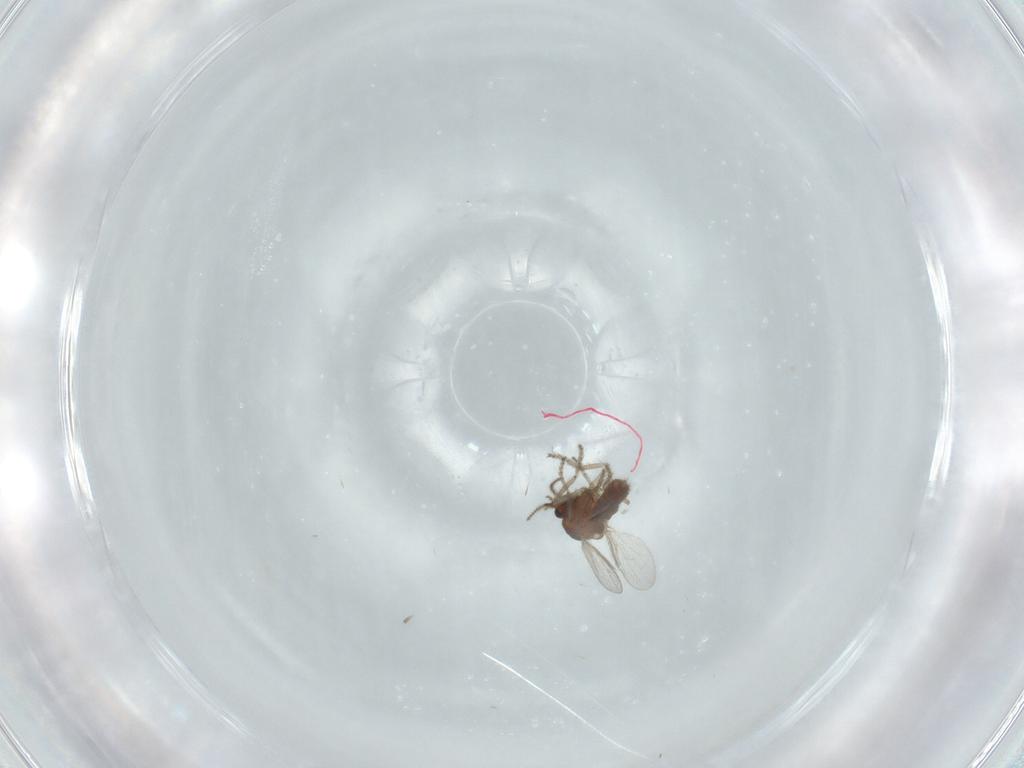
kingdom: Animalia
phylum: Arthropoda
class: Insecta
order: Diptera
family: Ceratopogonidae
